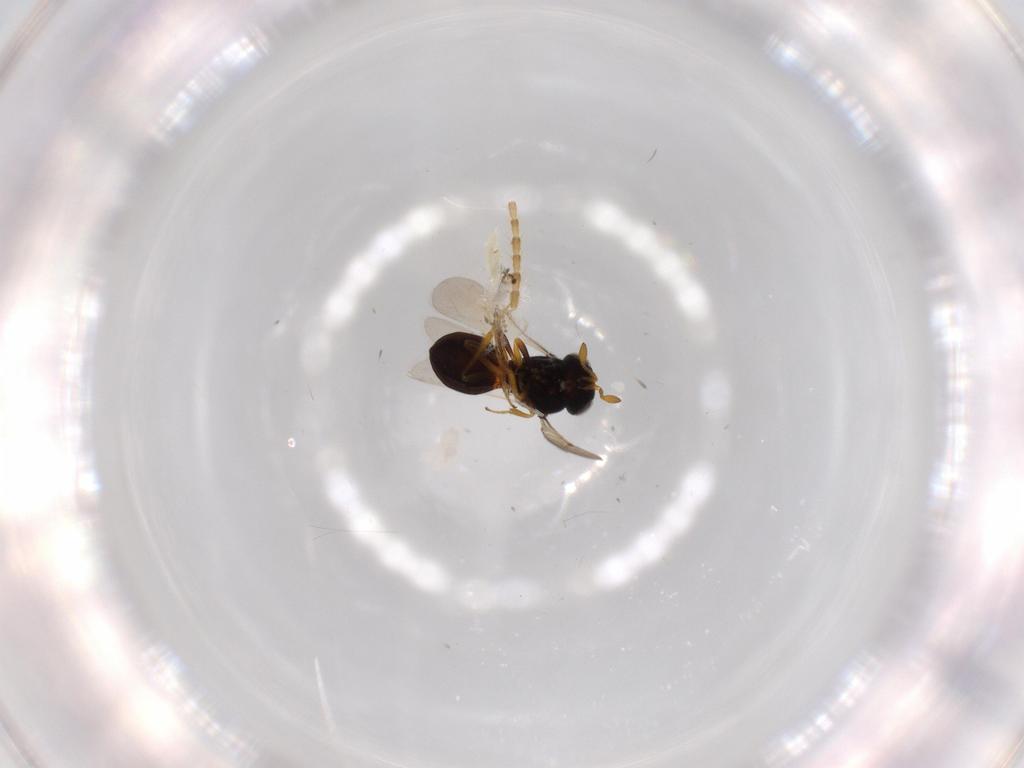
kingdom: Animalia
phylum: Arthropoda
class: Insecta
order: Hymenoptera
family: Scelionidae
